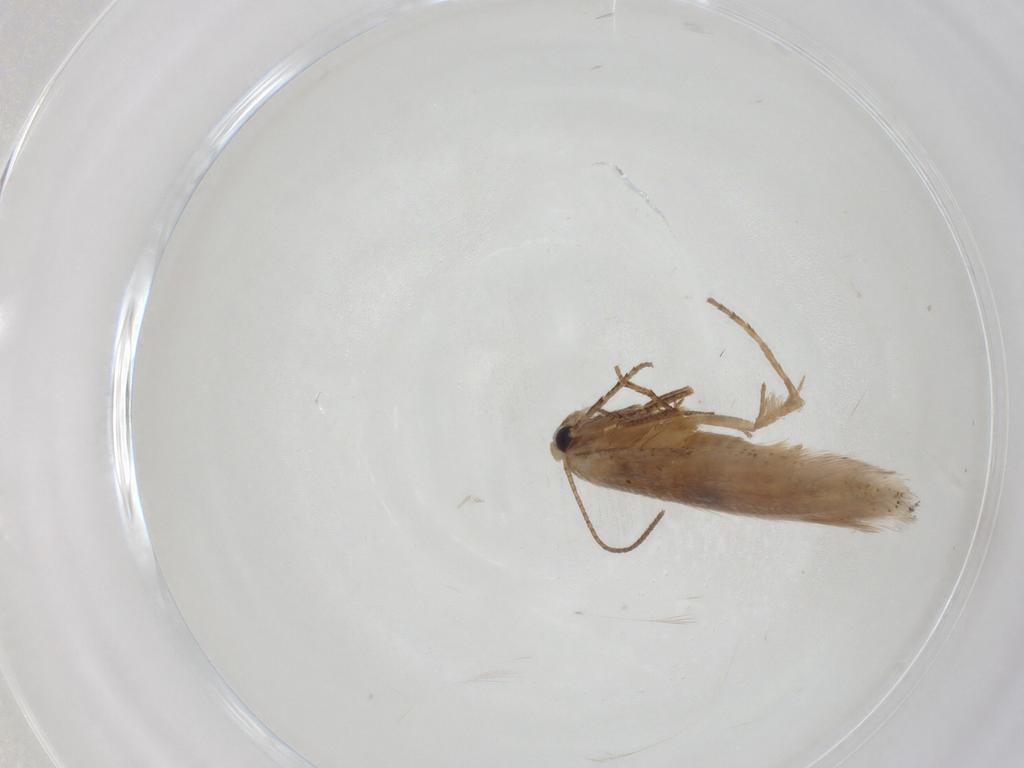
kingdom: Animalia
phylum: Arthropoda
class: Insecta
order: Lepidoptera
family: Bucculatricidae
